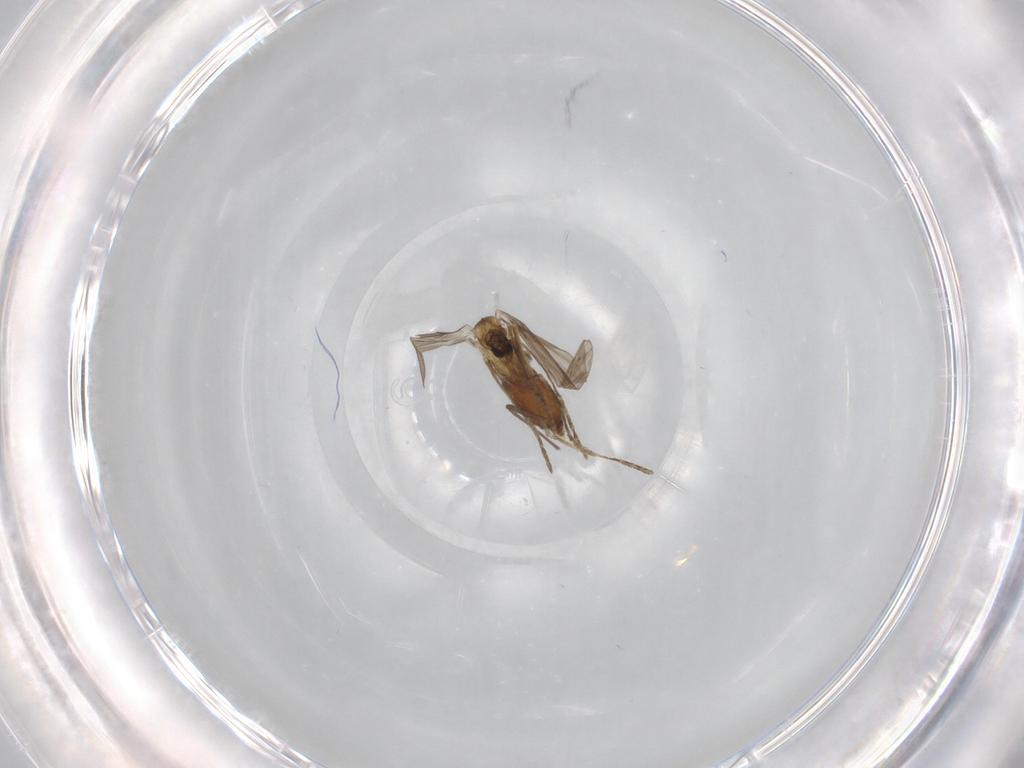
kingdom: Animalia
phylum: Arthropoda
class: Insecta
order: Diptera
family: Chironomidae
